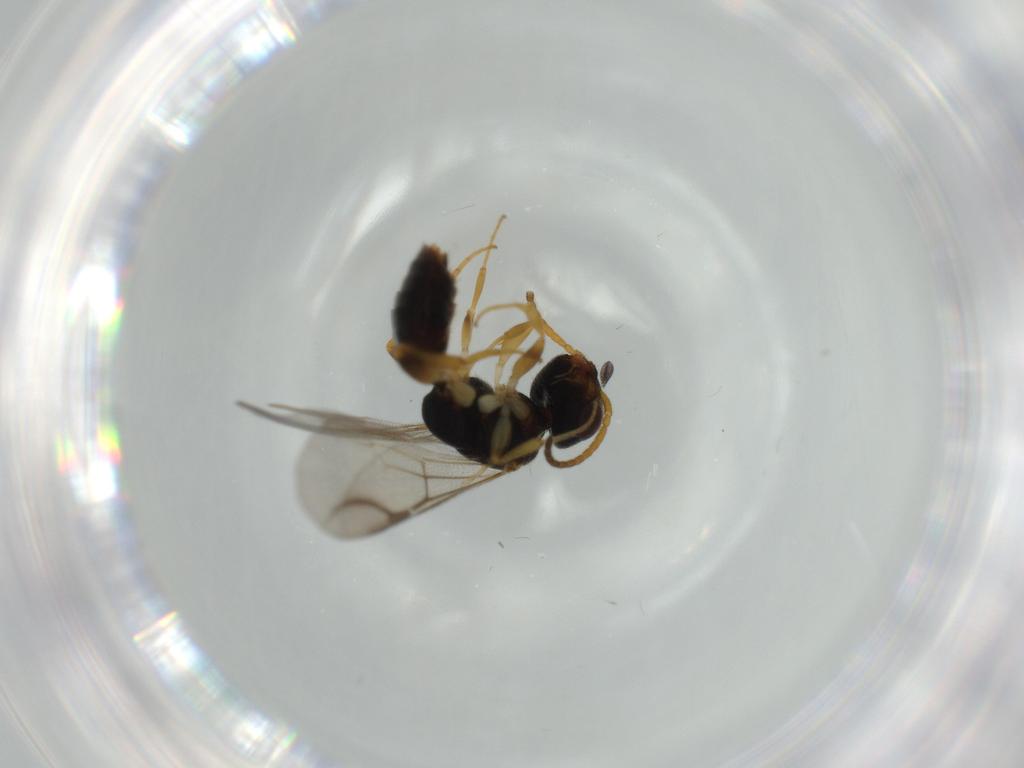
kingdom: Animalia
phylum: Arthropoda
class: Insecta
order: Hymenoptera
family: Bethylidae
